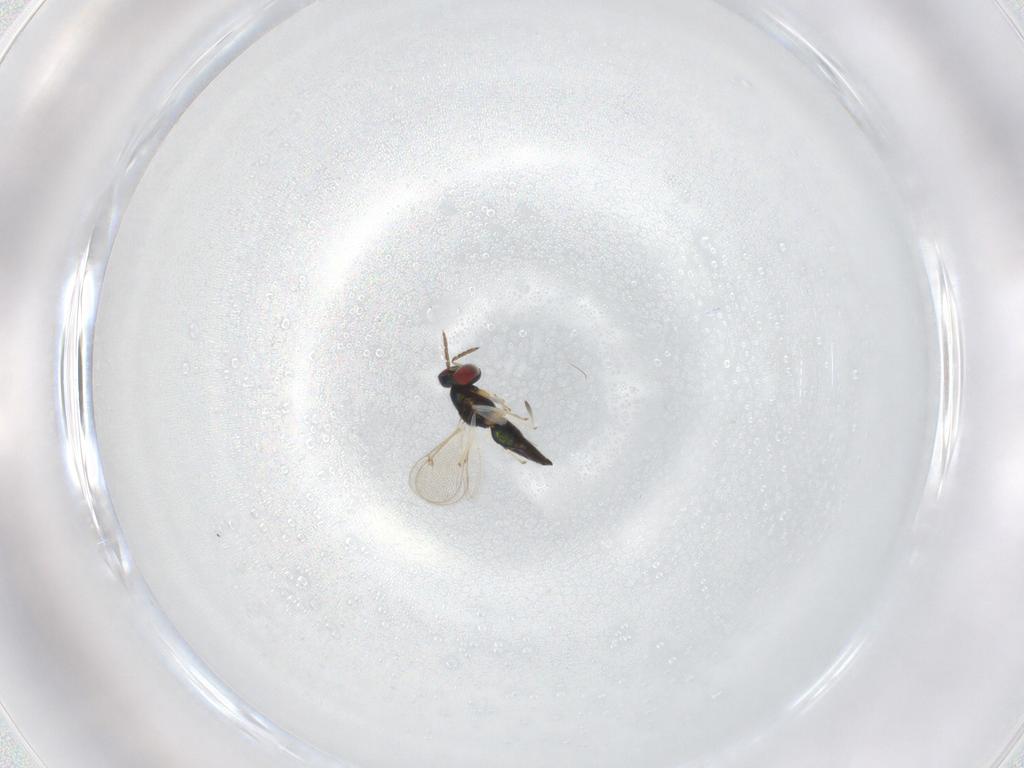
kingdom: Animalia
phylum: Arthropoda
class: Insecta
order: Hymenoptera
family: Eulophidae
